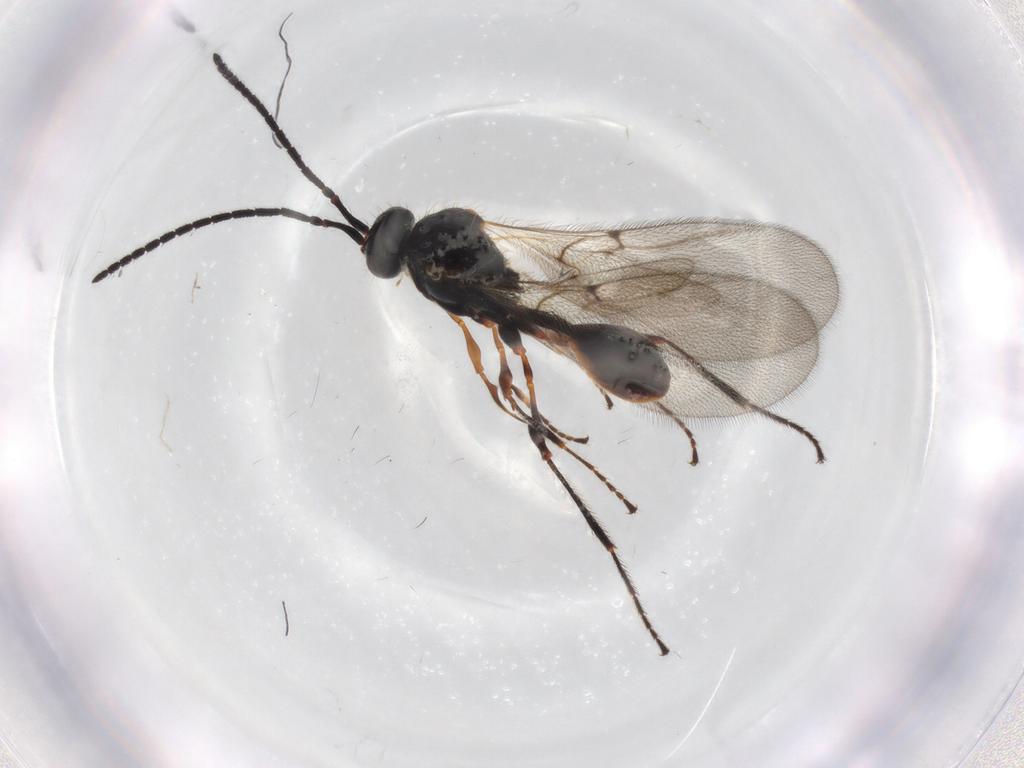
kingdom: Animalia
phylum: Arthropoda
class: Insecta
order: Hymenoptera
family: Diapriidae
